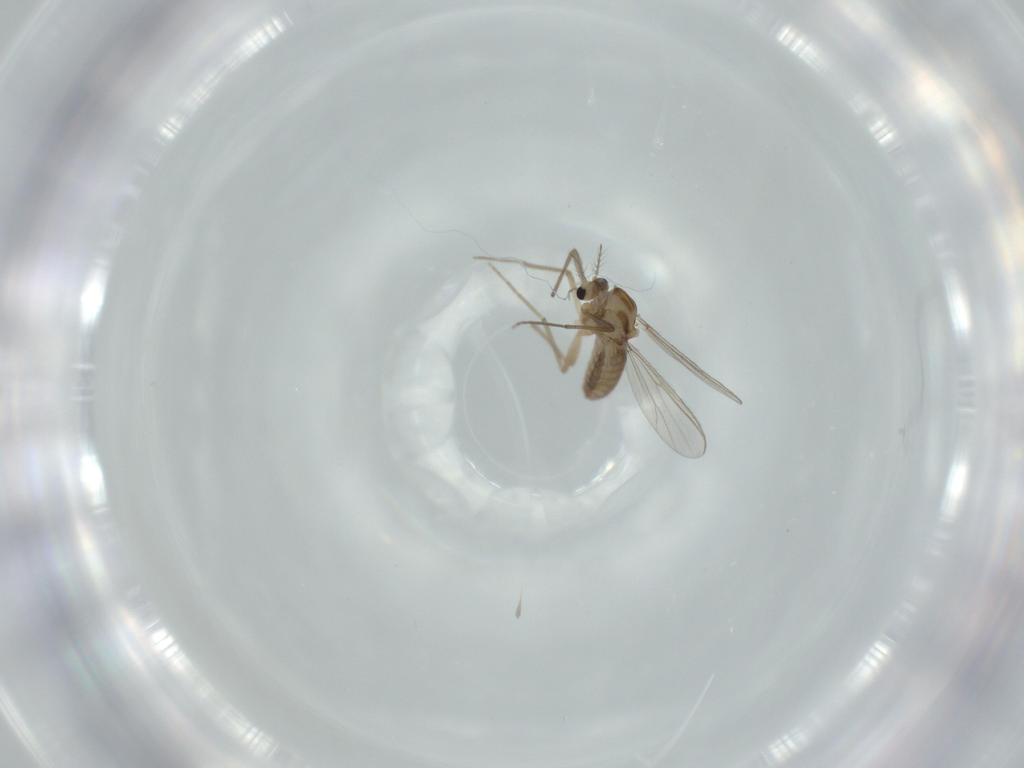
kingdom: Animalia
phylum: Arthropoda
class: Insecta
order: Diptera
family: Chironomidae
